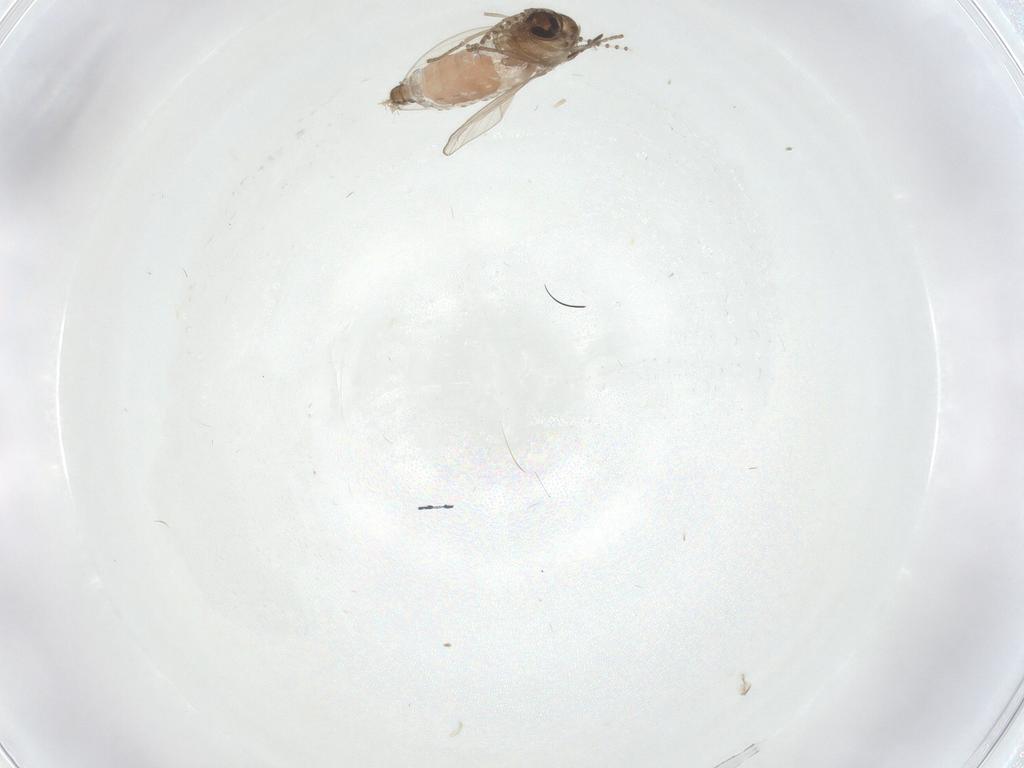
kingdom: Animalia
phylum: Arthropoda
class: Insecta
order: Diptera
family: Psychodidae
